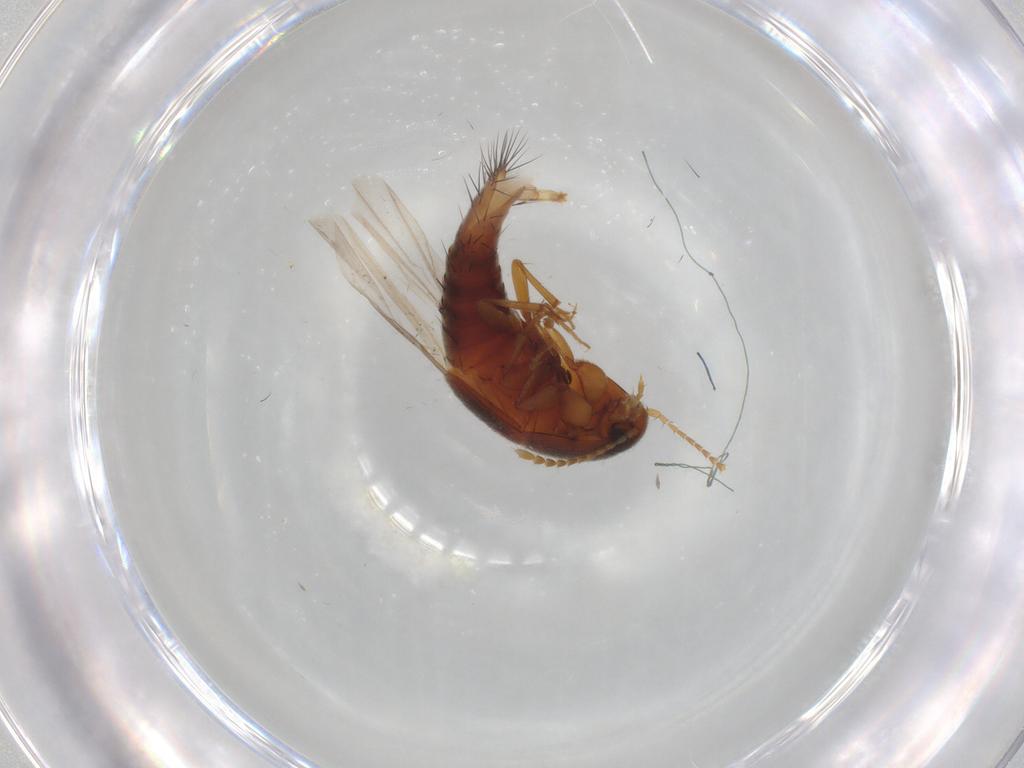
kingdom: Animalia
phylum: Arthropoda
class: Insecta
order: Coleoptera
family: Staphylinidae
